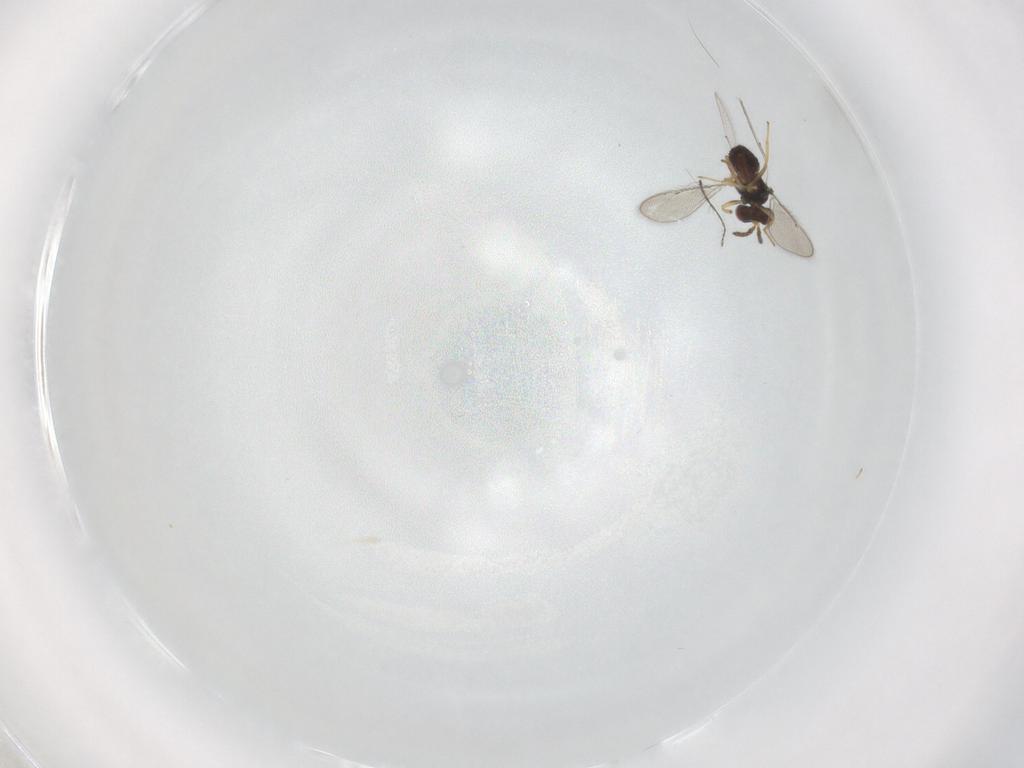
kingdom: Animalia
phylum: Arthropoda
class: Insecta
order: Hymenoptera
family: Eulophidae
